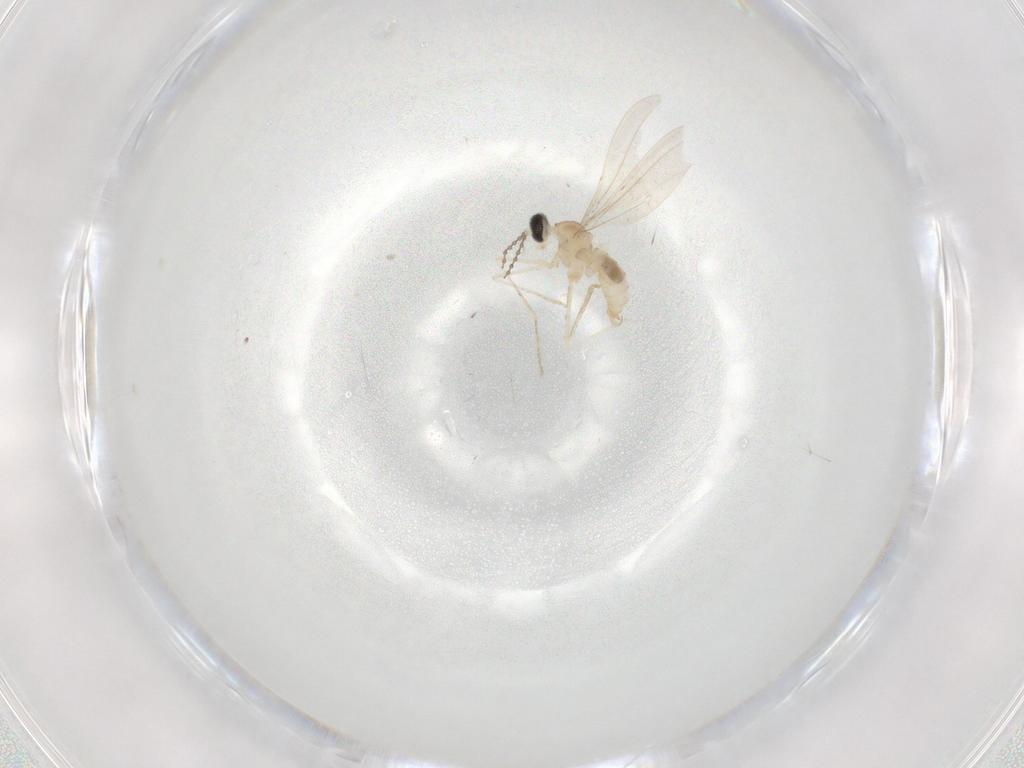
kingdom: Animalia
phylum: Arthropoda
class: Insecta
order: Diptera
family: Cecidomyiidae
